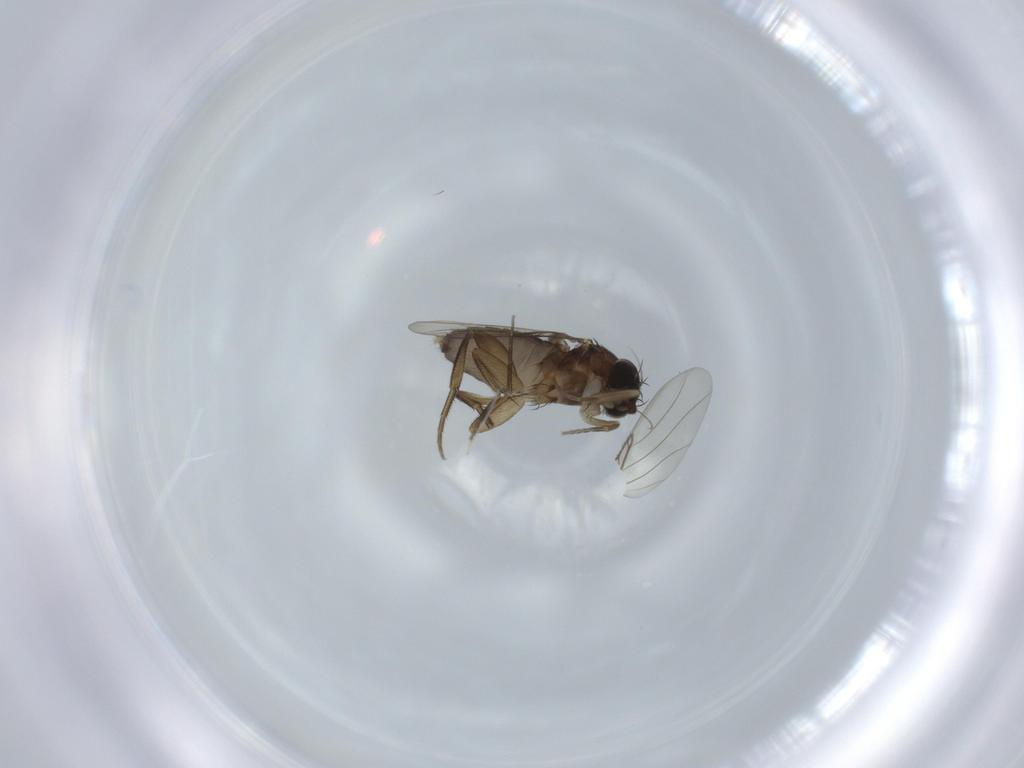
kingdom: Animalia
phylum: Arthropoda
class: Insecta
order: Diptera
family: Phoridae
